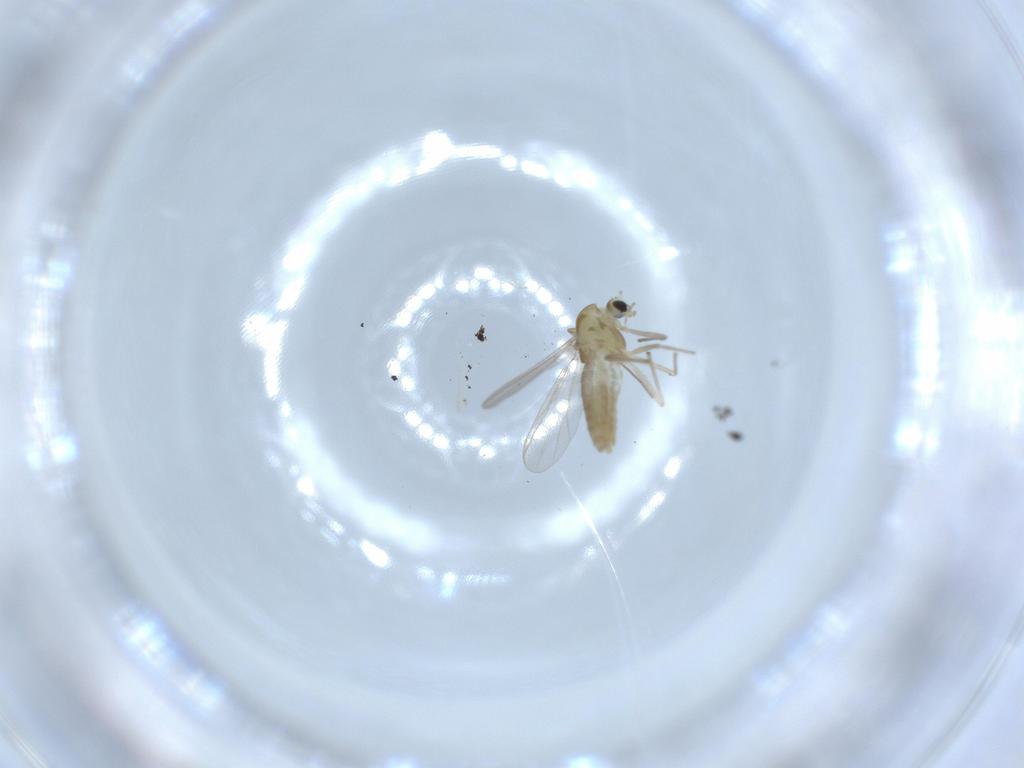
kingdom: Animalia
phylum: Arthropoda
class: Insecta
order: Diptera
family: Chironomidae
